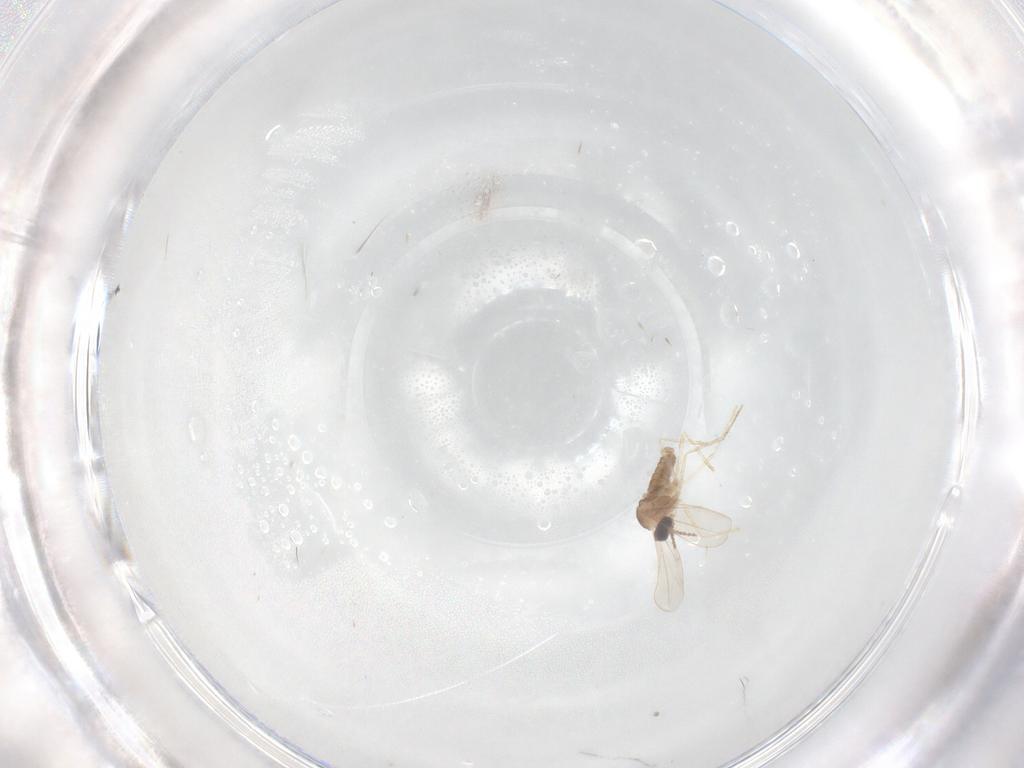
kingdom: Animalia
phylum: Arthropoda
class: Insecta
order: Diptera
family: Cecidomyiidae
